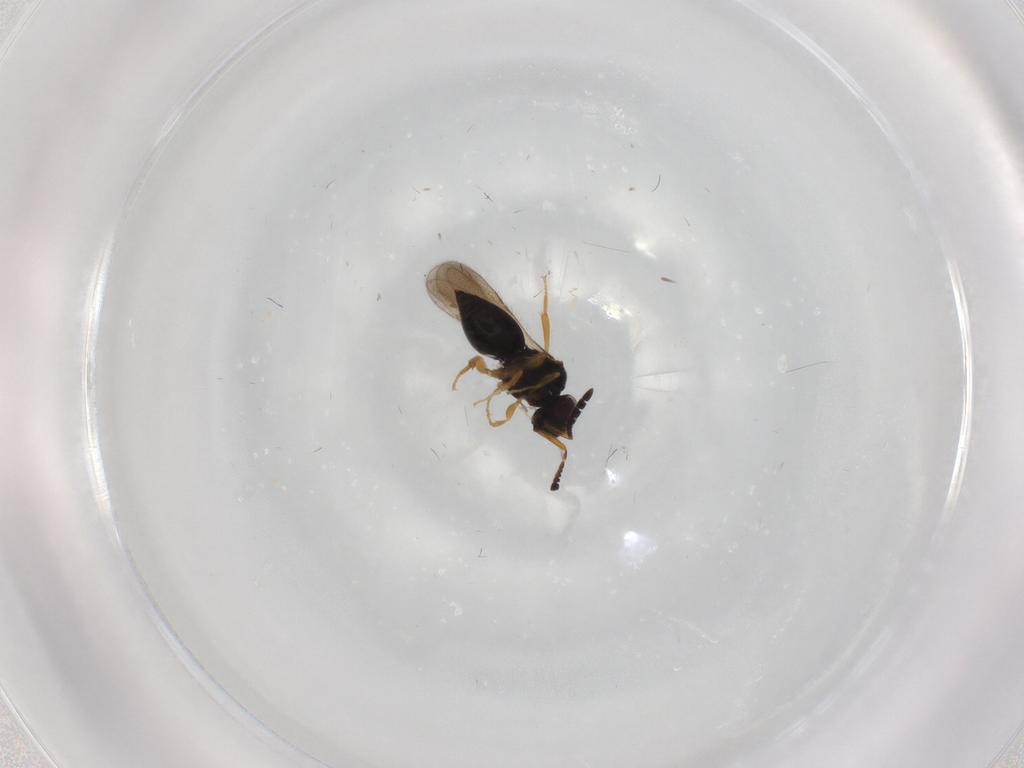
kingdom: Animalia
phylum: Arthropoda
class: Insecta
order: Hymenoptera
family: Ceraphronidae
